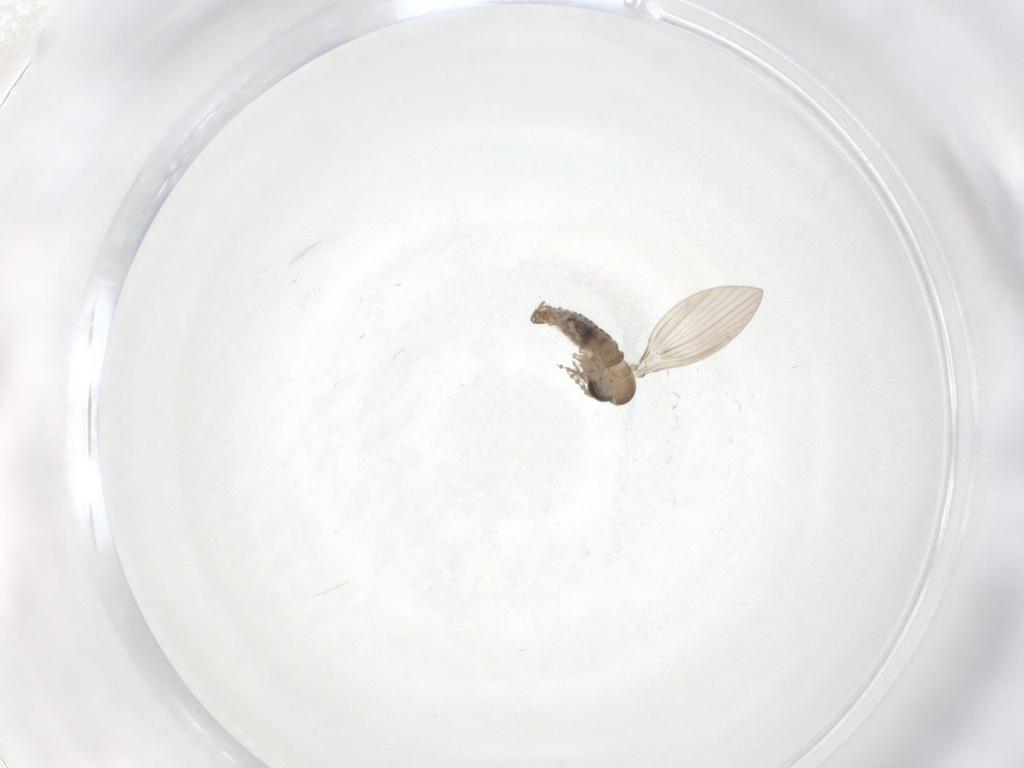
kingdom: Animalia
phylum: Arthropoda
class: Insecta
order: Diptera
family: Psychodidae
